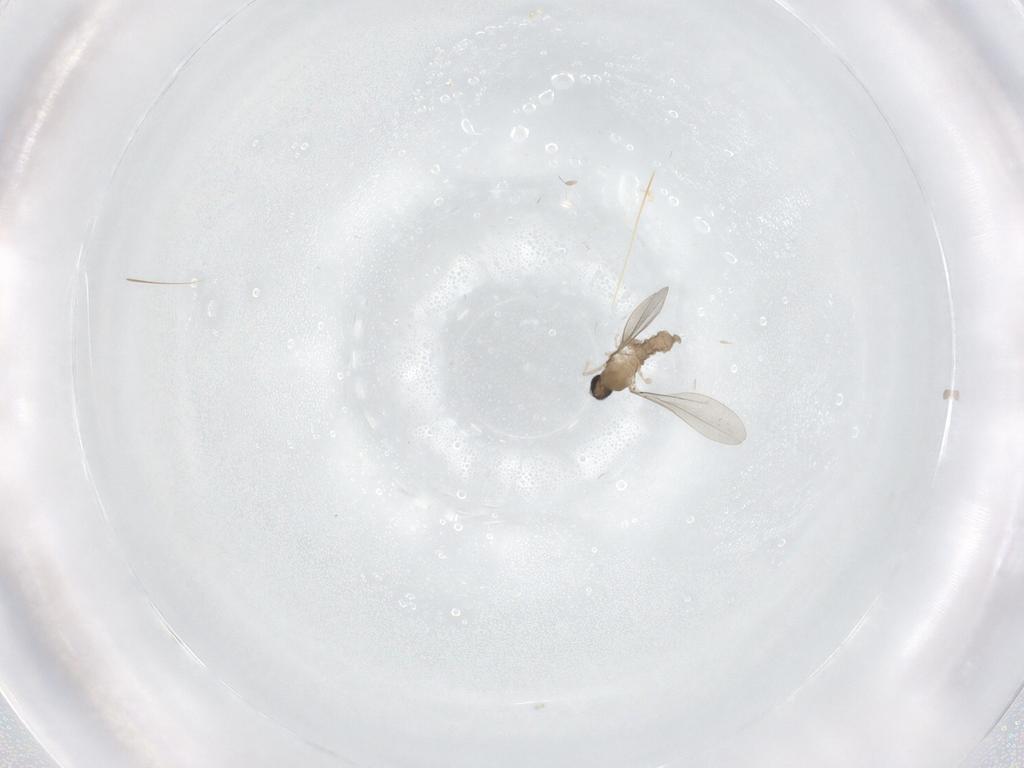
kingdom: Animalia
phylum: Arthropoda
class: Insecta
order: Diptera
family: Cecidomyiidae
